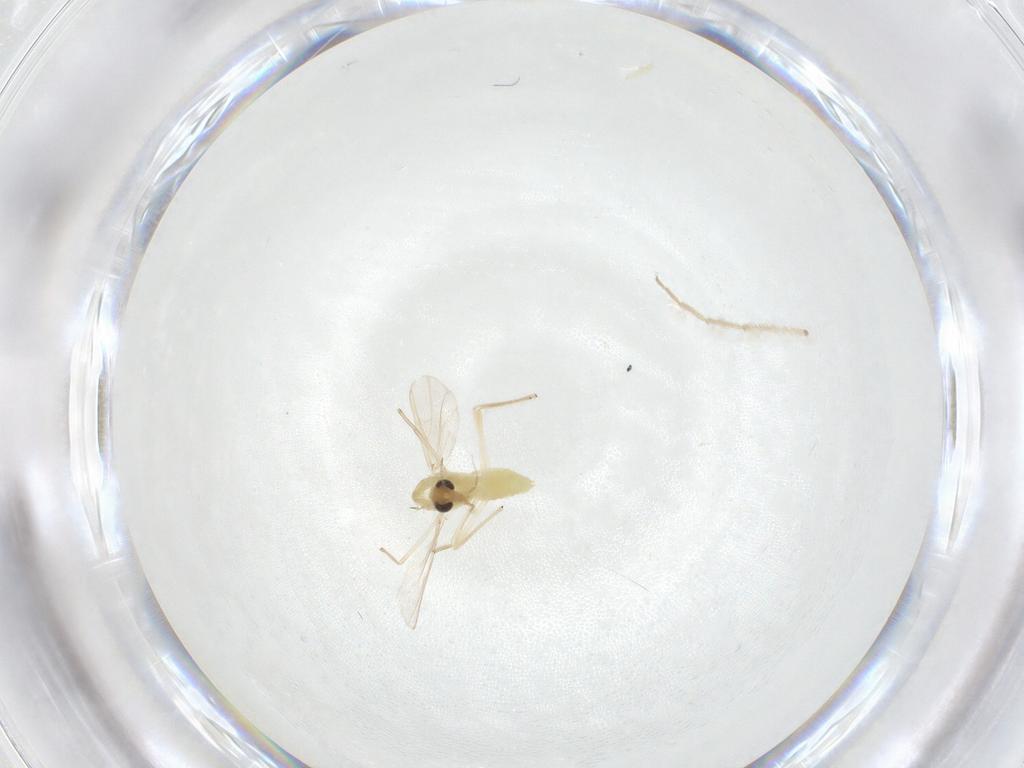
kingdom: Animalia
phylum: Arthropoda
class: Insecta
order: Diptera
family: Chironomidae
